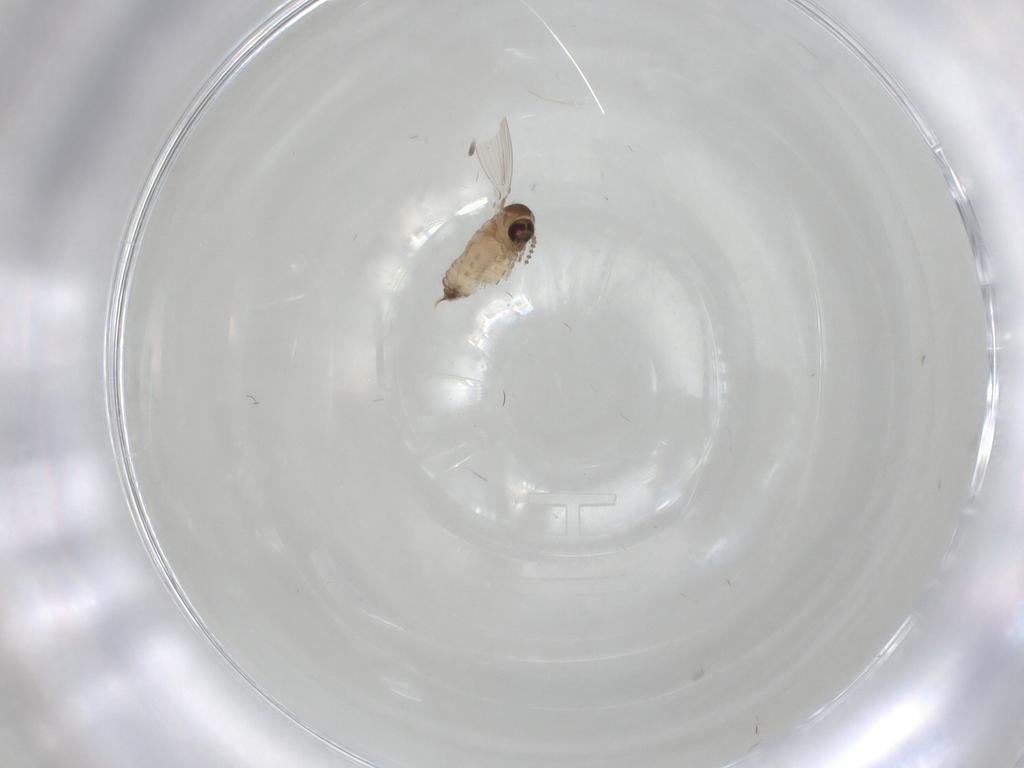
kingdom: Animalia
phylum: Arthropoda
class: Insecta
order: Diptera
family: Psychodidae
